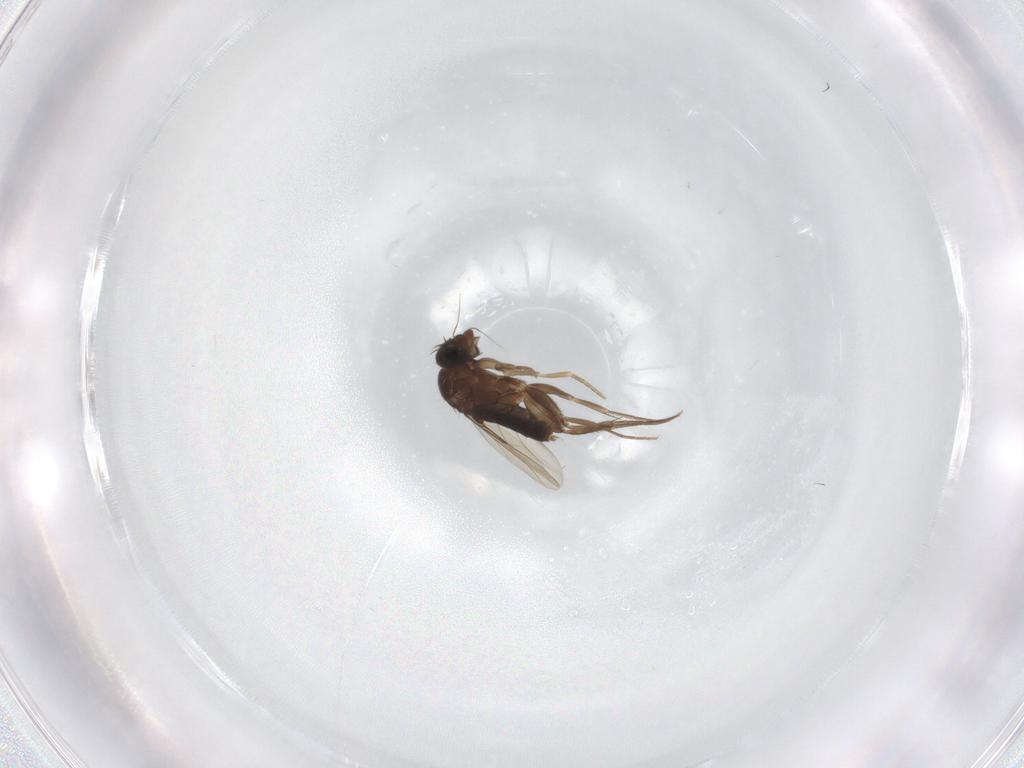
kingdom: Animalia
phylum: Arthropoda
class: Insecta
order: Diptera
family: Phoridae
